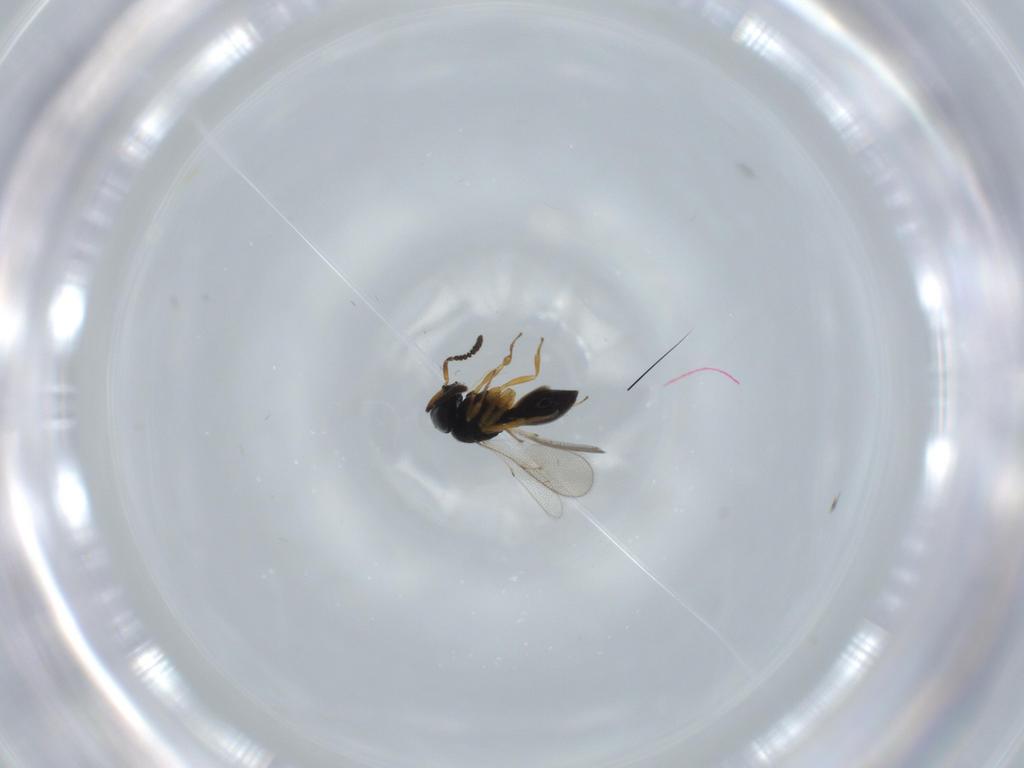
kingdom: Animalia
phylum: Arthropoda
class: Insecta
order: Hymenoptera
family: Scelionidae
